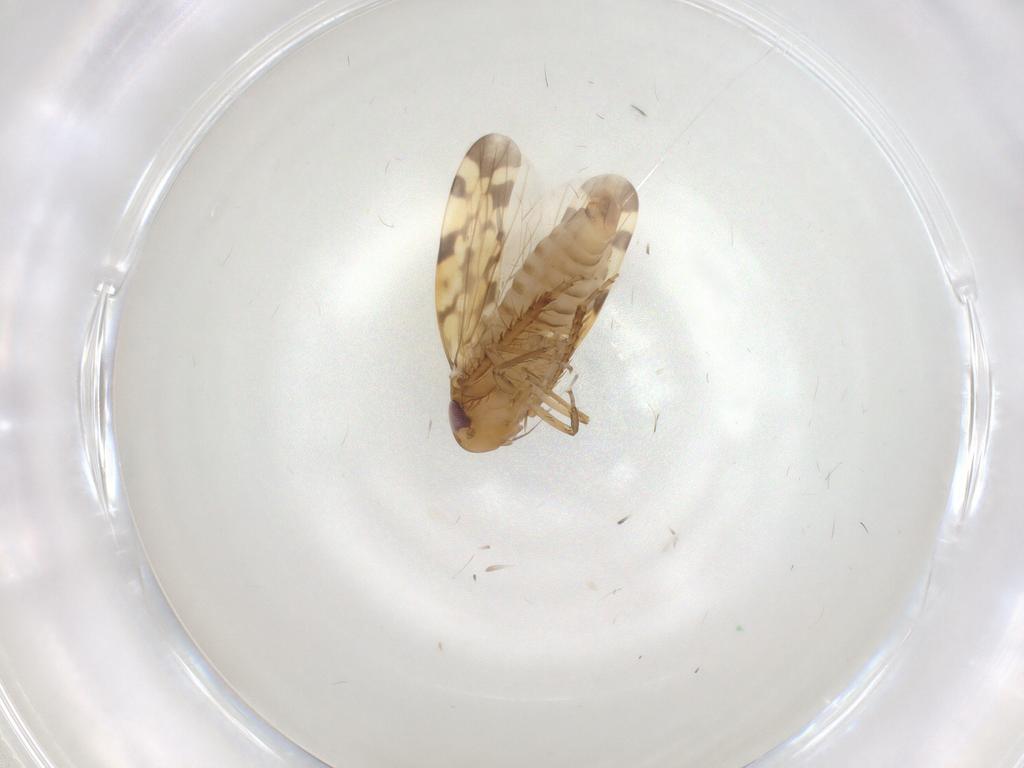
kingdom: Animalia
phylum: Arthropoda
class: Insecta
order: Hemiptera
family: Cicadellidae
